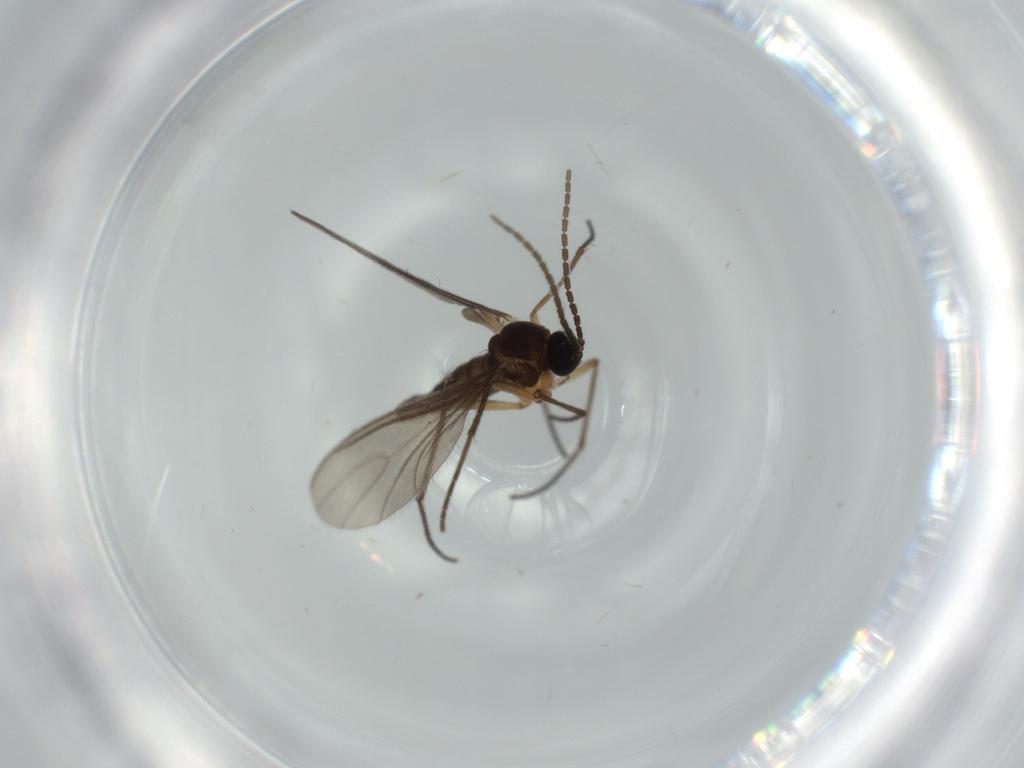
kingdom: Animalia
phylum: Arthropoda
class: Insecta
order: Diptera
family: Sciaridae
